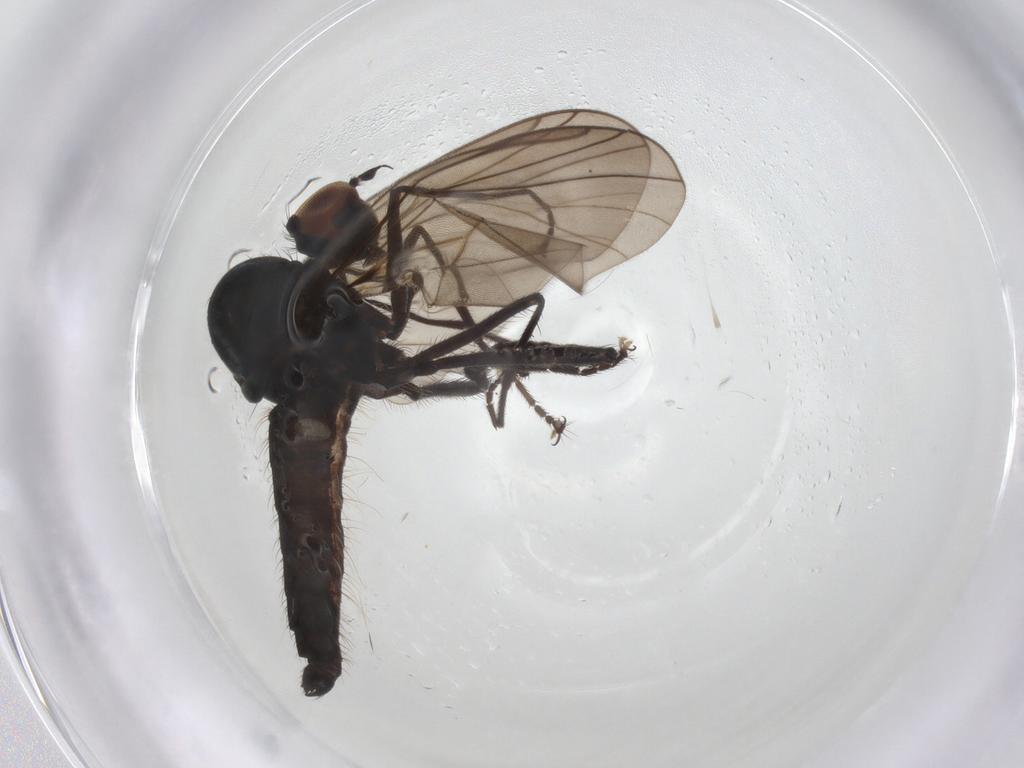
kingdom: Animalia
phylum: Arthropoda
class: Insecta
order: Diptera
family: Hybotidae
